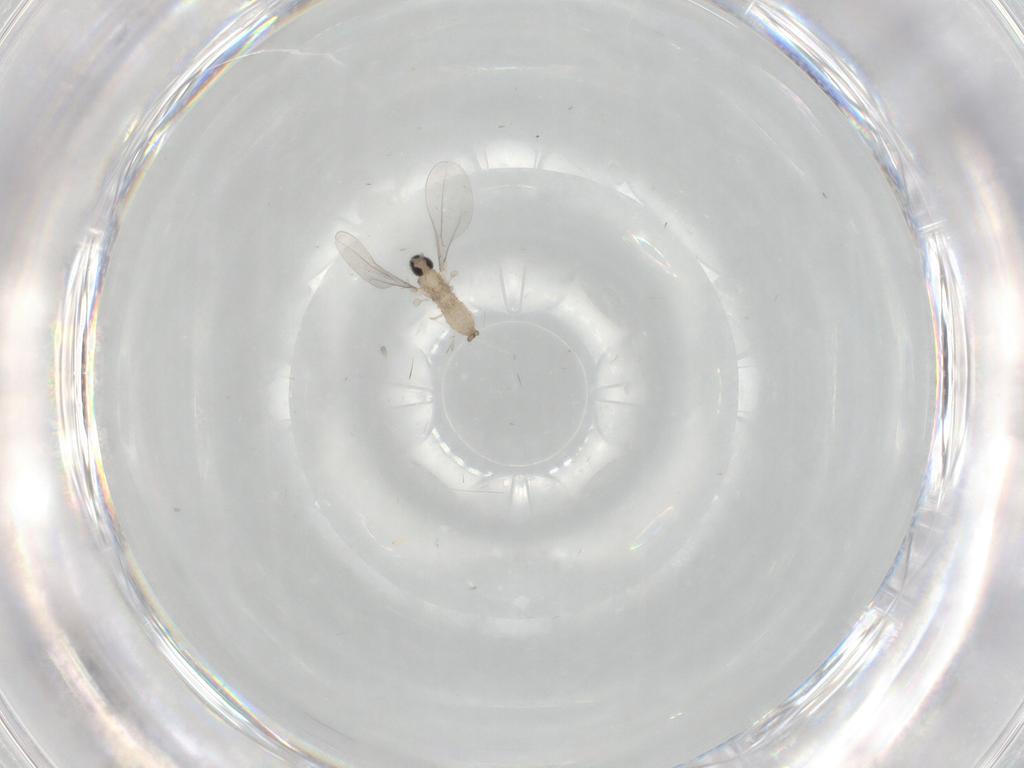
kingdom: Animalia
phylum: Arthropoda
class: Insecta
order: Diptera
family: Cecidomyiidae
